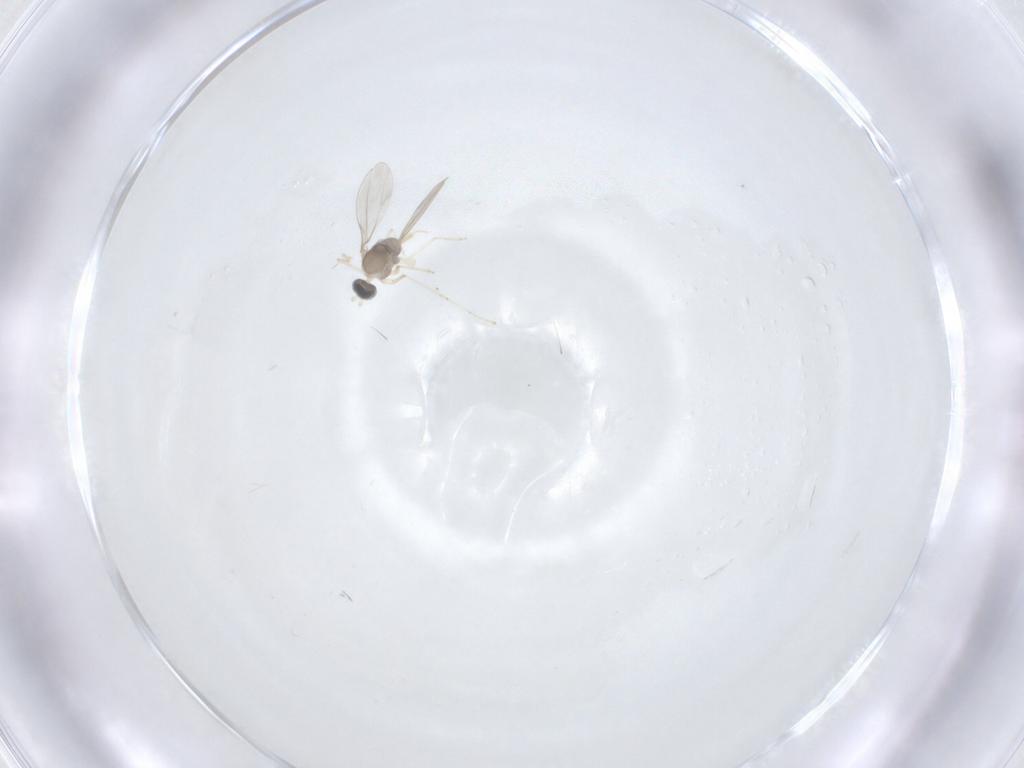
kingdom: Animalia
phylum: Arthropoda
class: Insecta
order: Diptera
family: Cecidomyiidae
